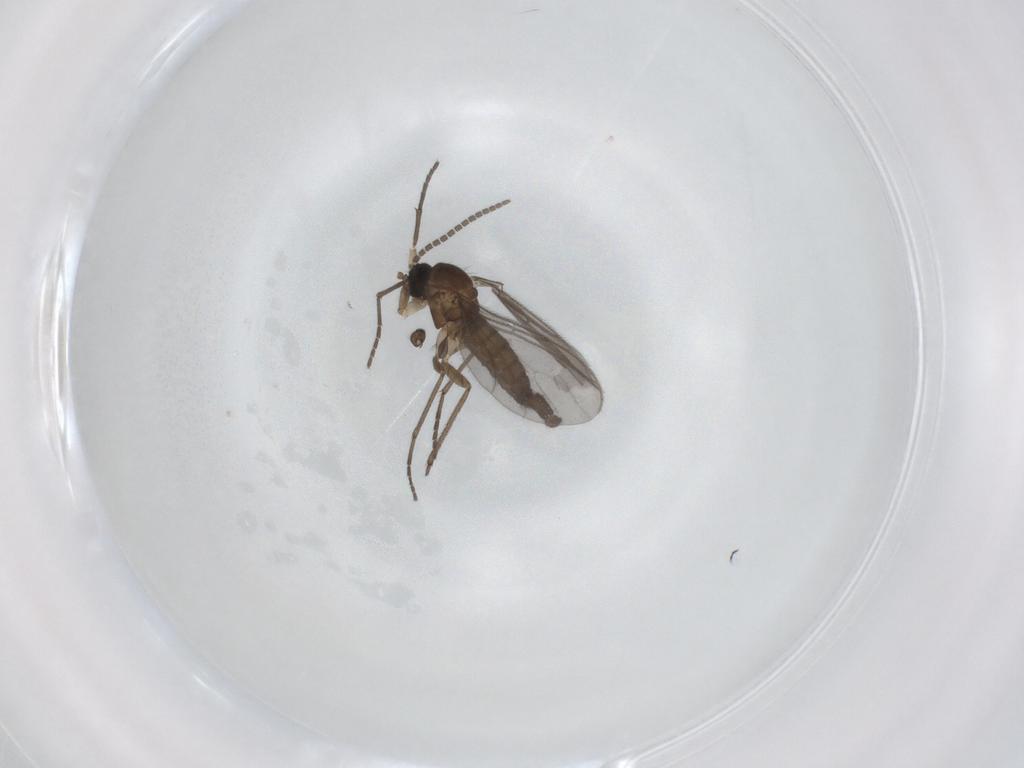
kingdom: Animalia
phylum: Arthropoda
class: Insecta
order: Diptera
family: Sciaridae
